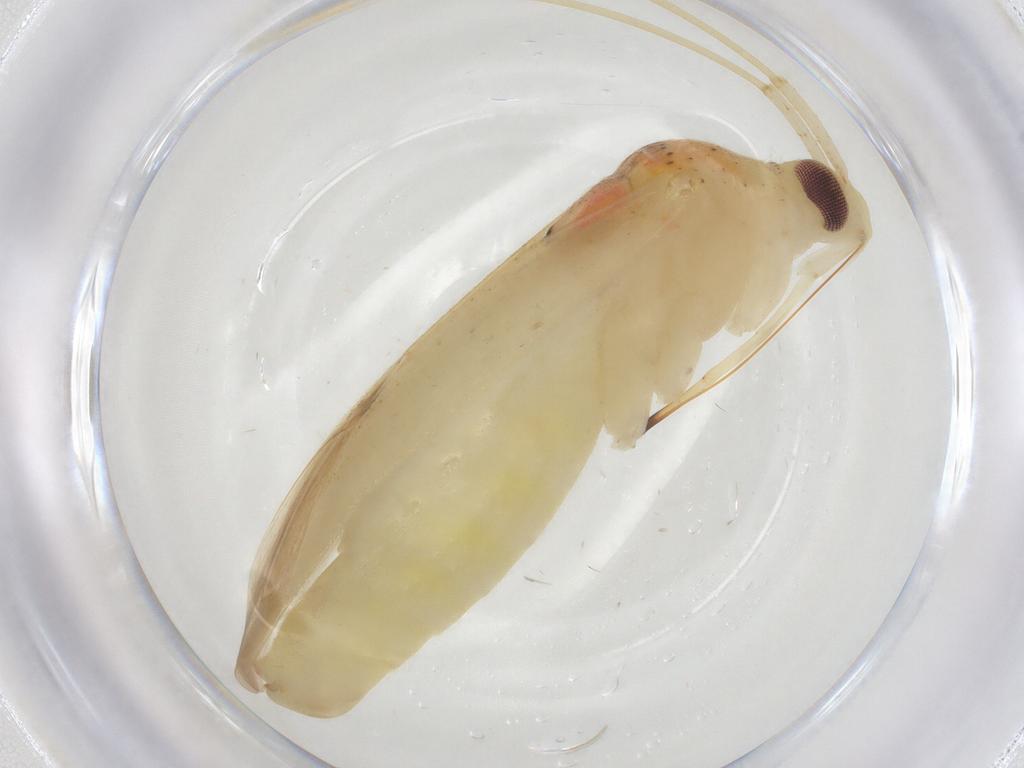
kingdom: Animalia
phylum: Arthropoda
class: Insecta
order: Hemiptera
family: Miridae
